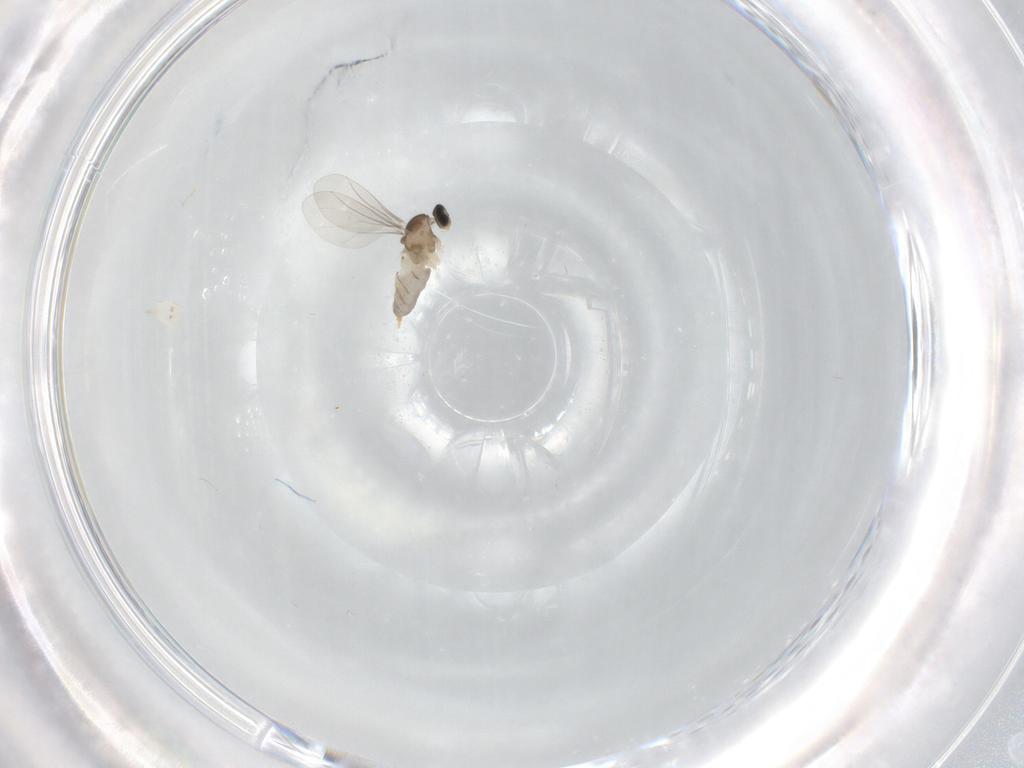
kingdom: Animalia
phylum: Arthropoda
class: Insecta
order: Diptera
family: Cecidomyiidae
